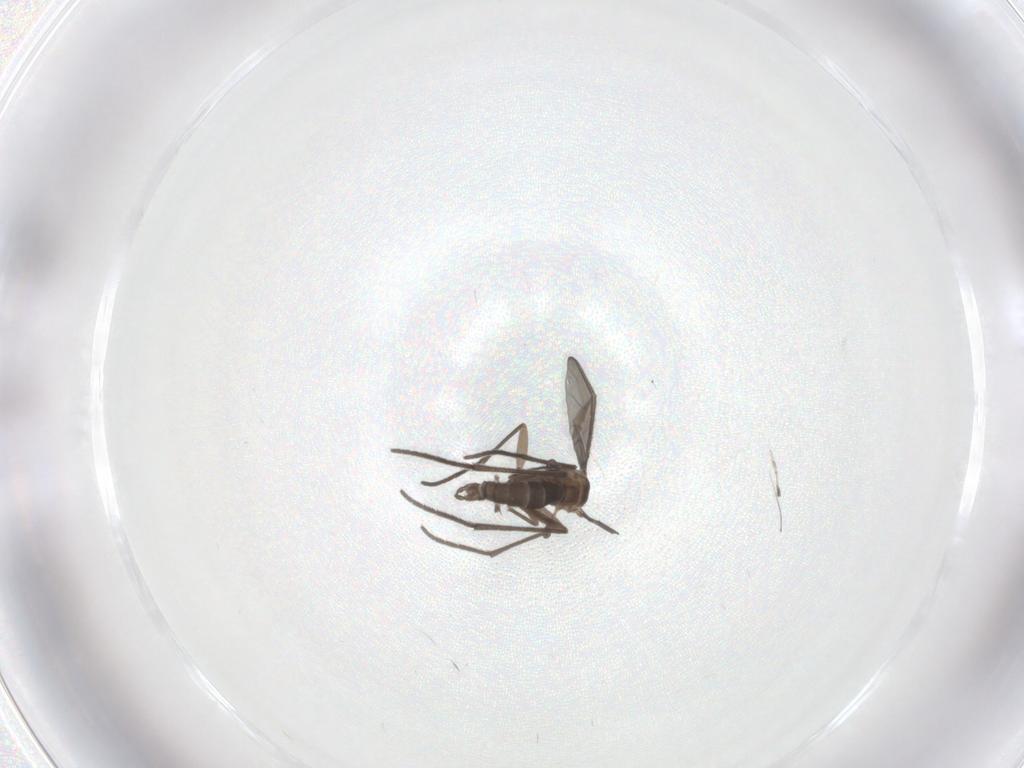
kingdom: Animalia
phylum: Arthropoda
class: Insecta
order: Diptera
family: Sciaridae
